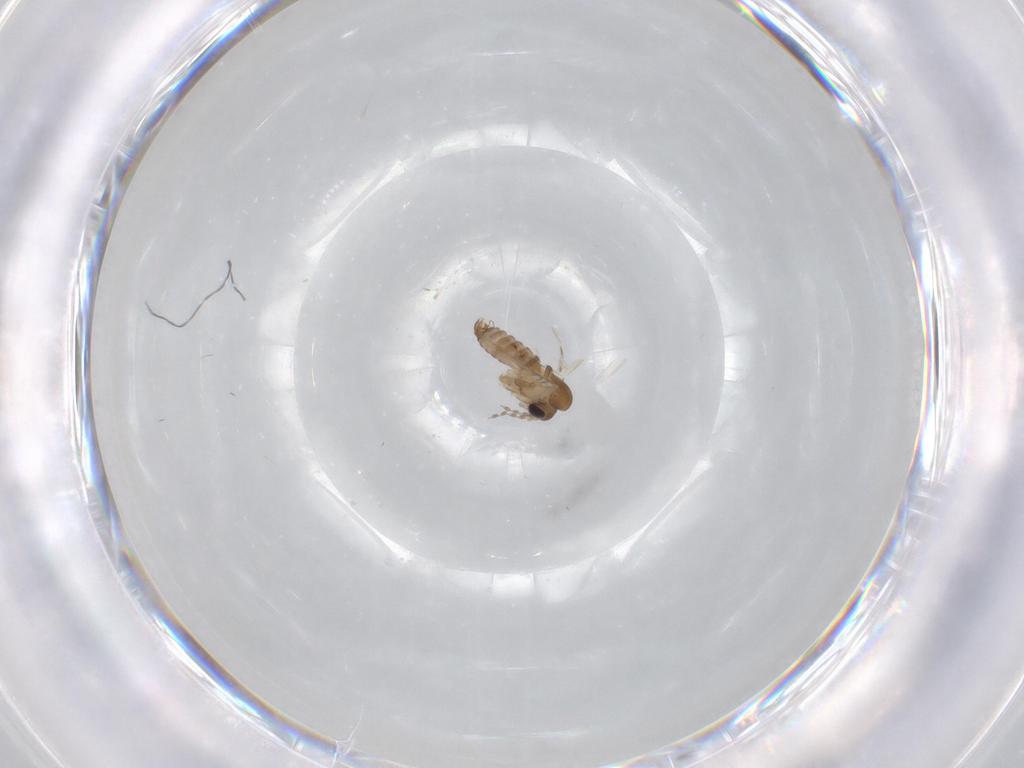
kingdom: Animalia
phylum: Arthropoda
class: Insecta
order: Diptera
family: Psychodidae
